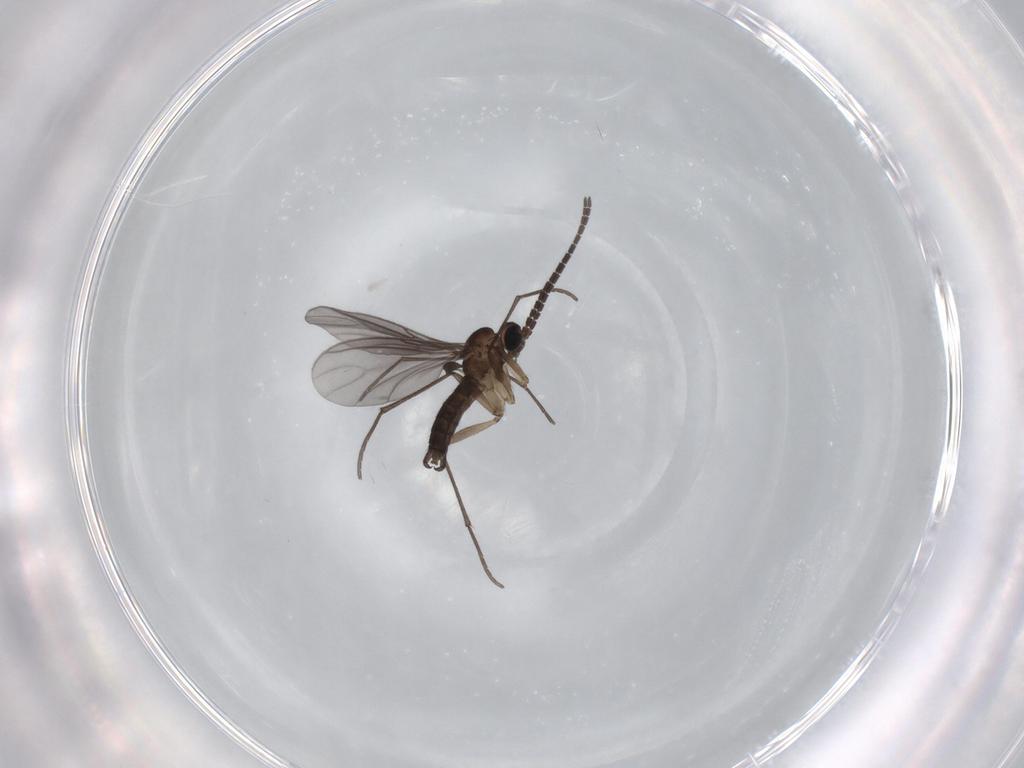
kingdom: Animalia
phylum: Arthropoda
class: Insecta
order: Diptera
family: Sciaridae
